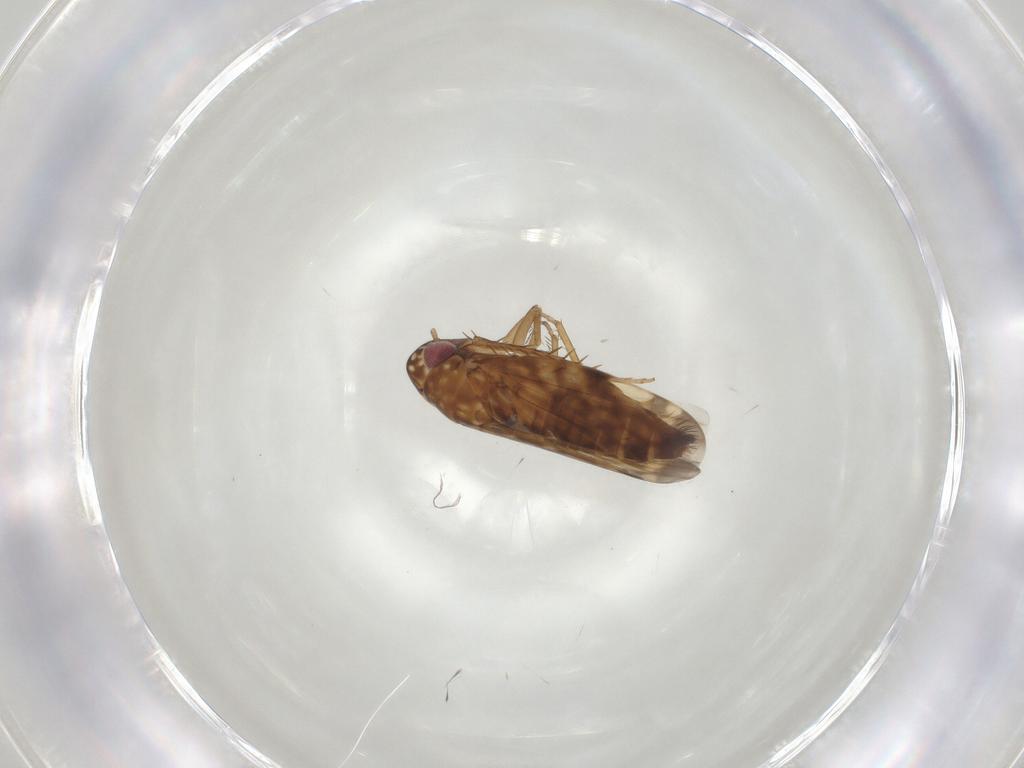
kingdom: Animalia
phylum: Arthropoda
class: Insecta
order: Hemiptera
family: Cicadellidae
